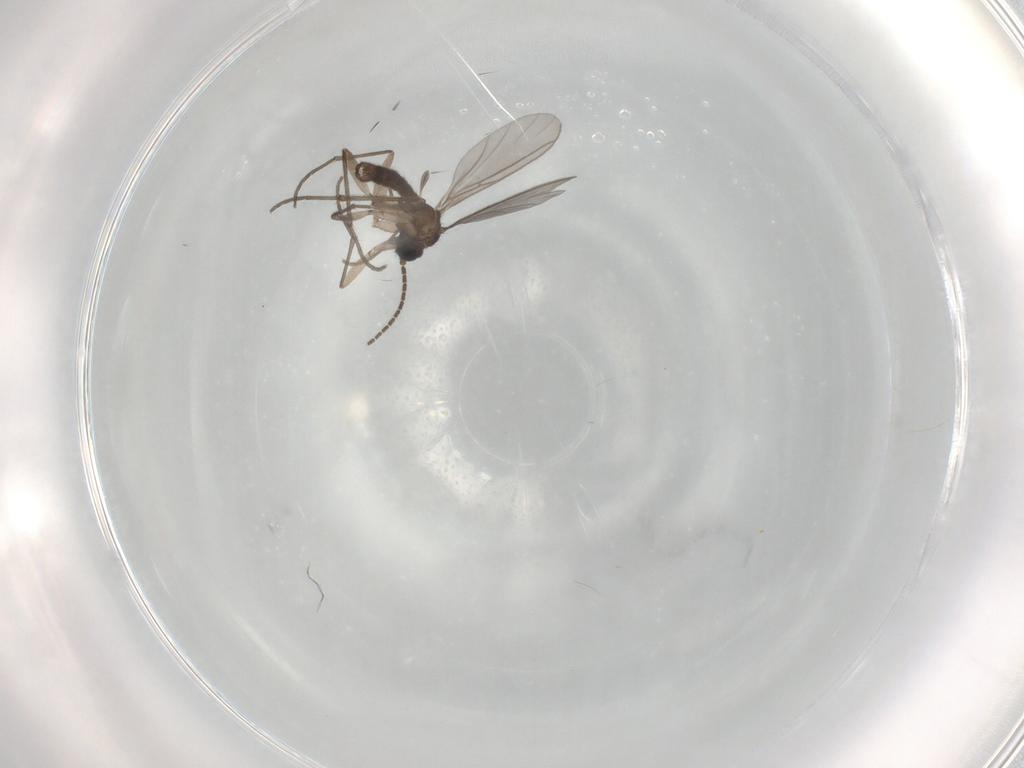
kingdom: Animalia
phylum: Arthropoda
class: Insecta
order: Diptera
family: Sciaridae
